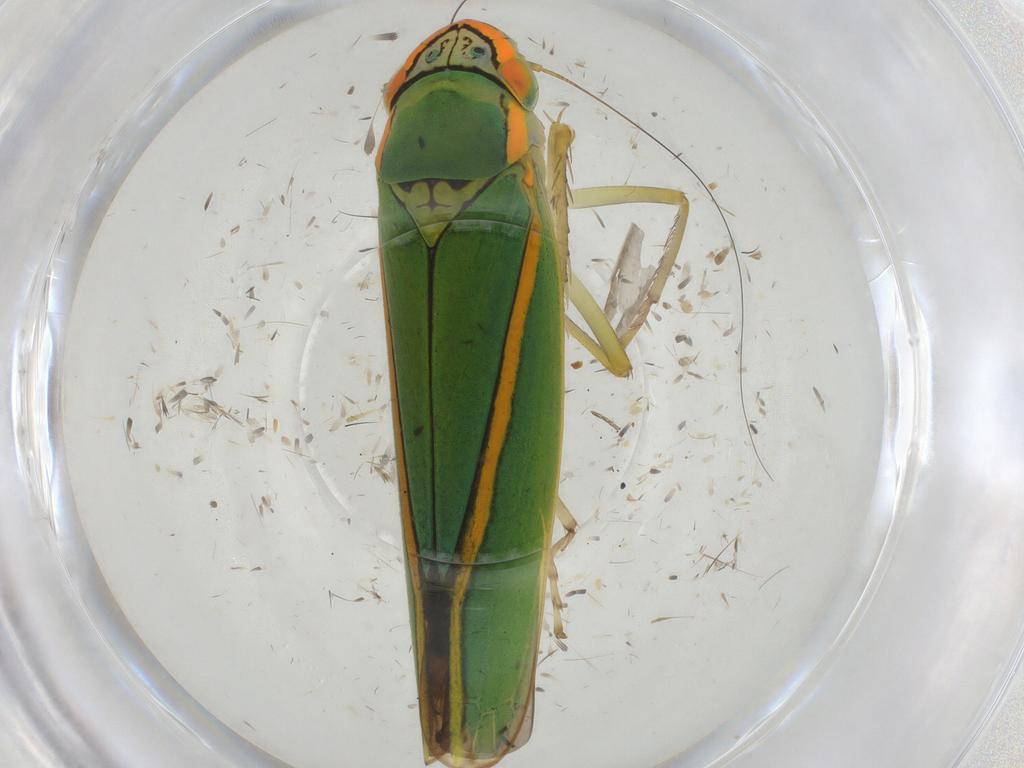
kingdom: Animalia
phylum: Arthropoda
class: Insecta
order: Hemiptera
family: Cicadellidae
